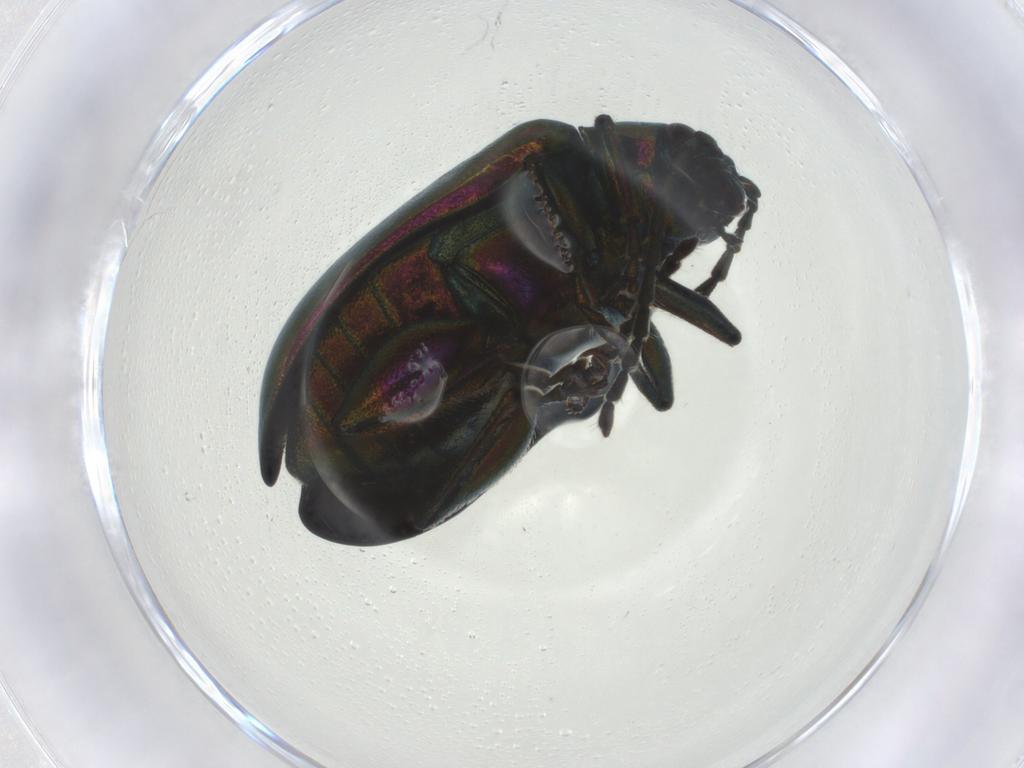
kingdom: Animalia
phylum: Arthropoda
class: Insecta
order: Coleoptera
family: Chrysomelidae
